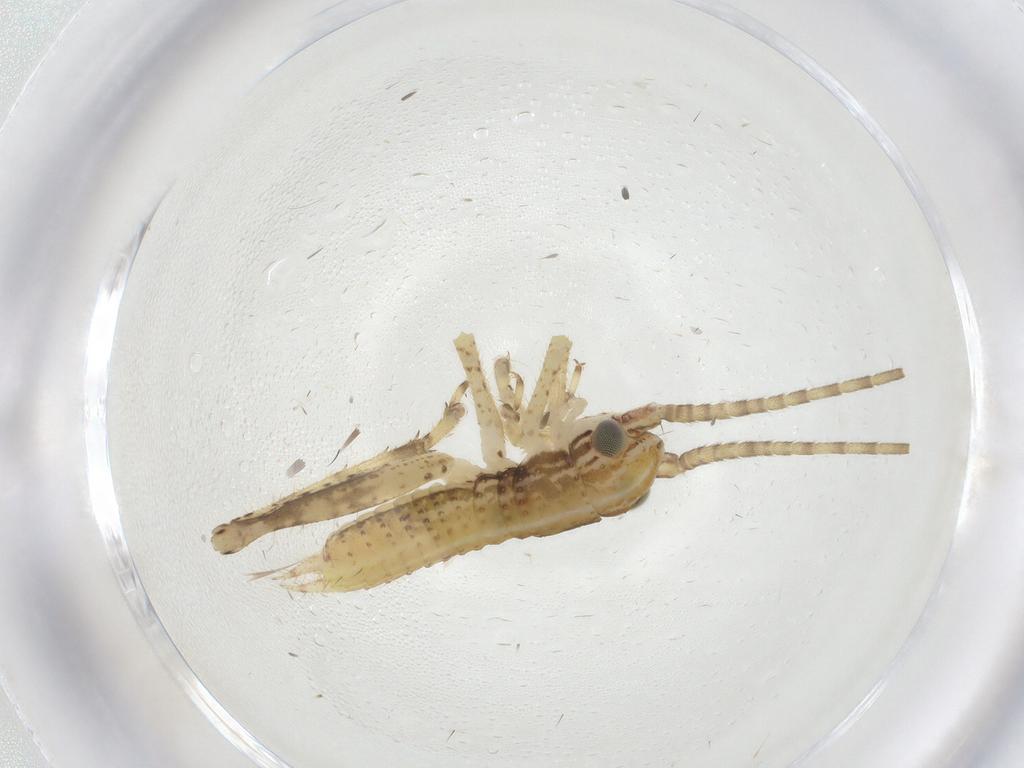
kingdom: Animalia
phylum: Arthropoda
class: Insecta
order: Orthoptera
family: Gryllidae
